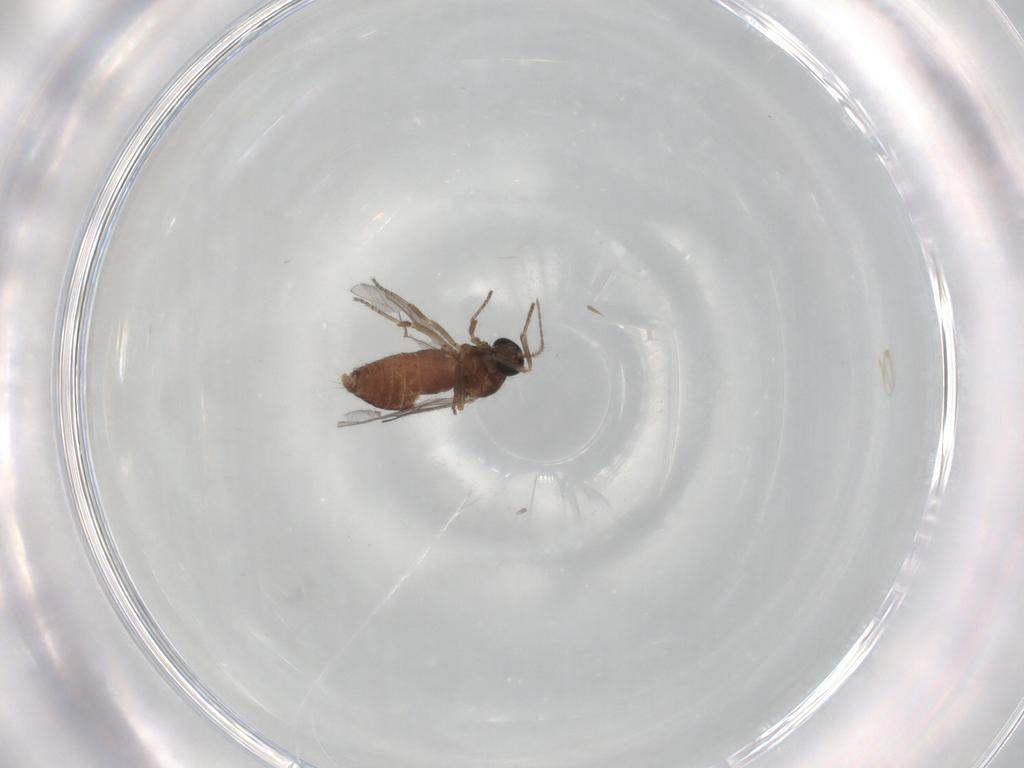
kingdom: Animalia
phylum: Arthropoda
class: Insecta
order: Diptera
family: Ceratopogonidae
